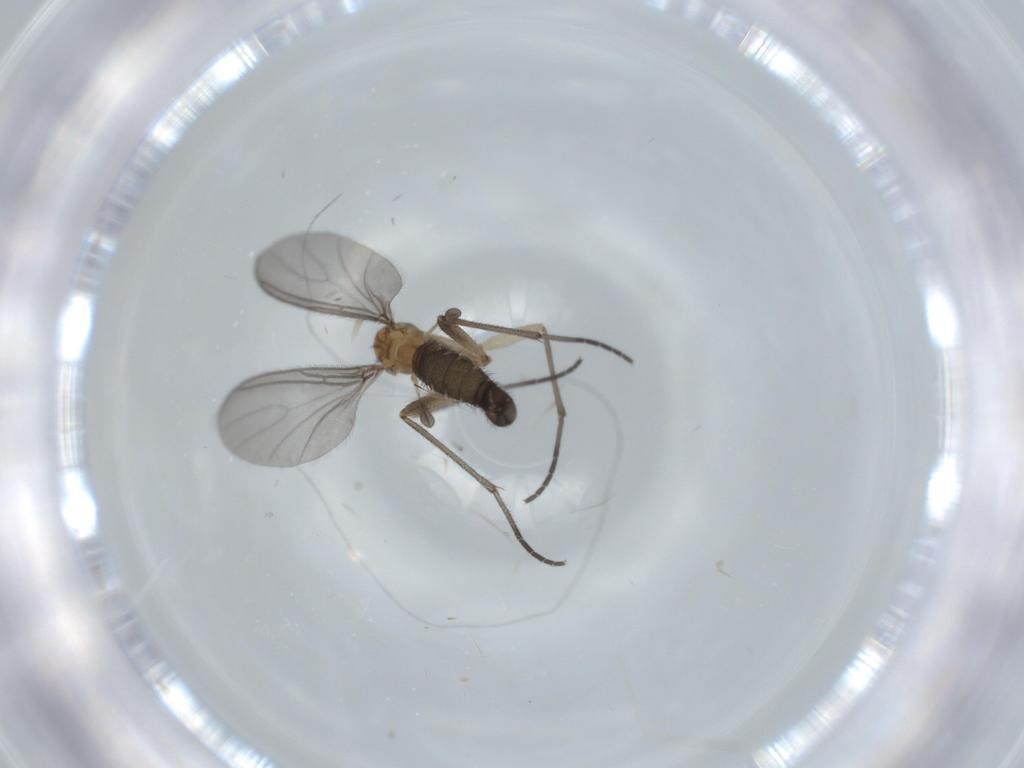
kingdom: Animalia
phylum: Arthropoda
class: Insecta
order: Diptera
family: Sciaridae
